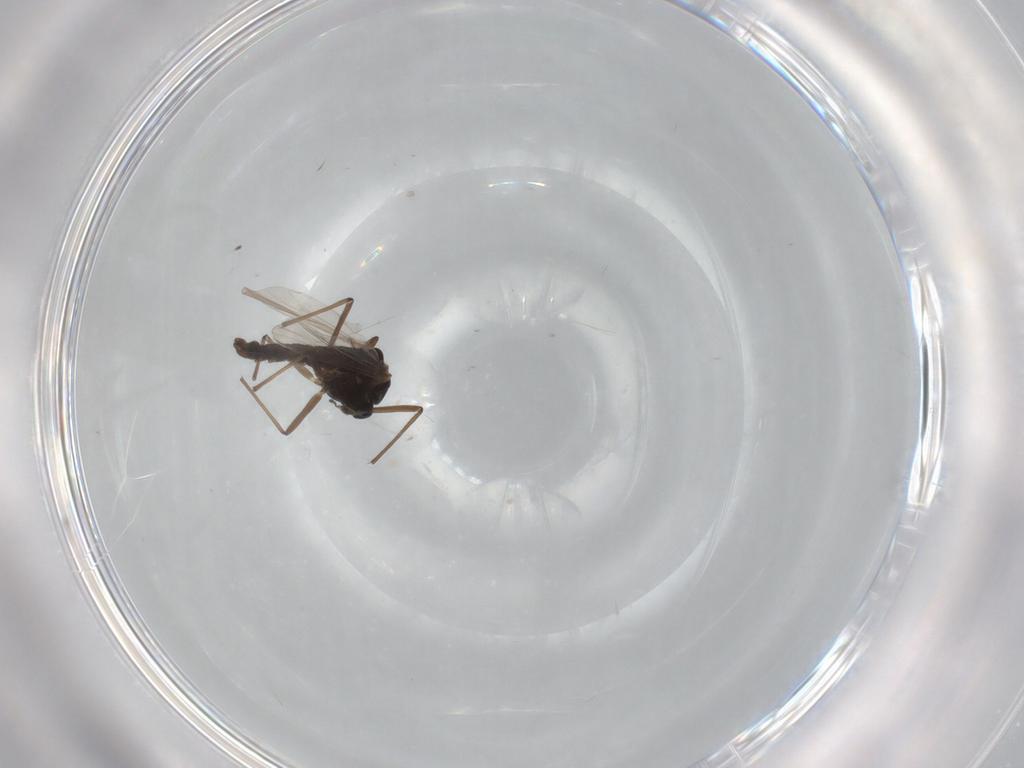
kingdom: Animalia
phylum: Arthropoda
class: Insecta
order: Diptera
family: Chironomidae
